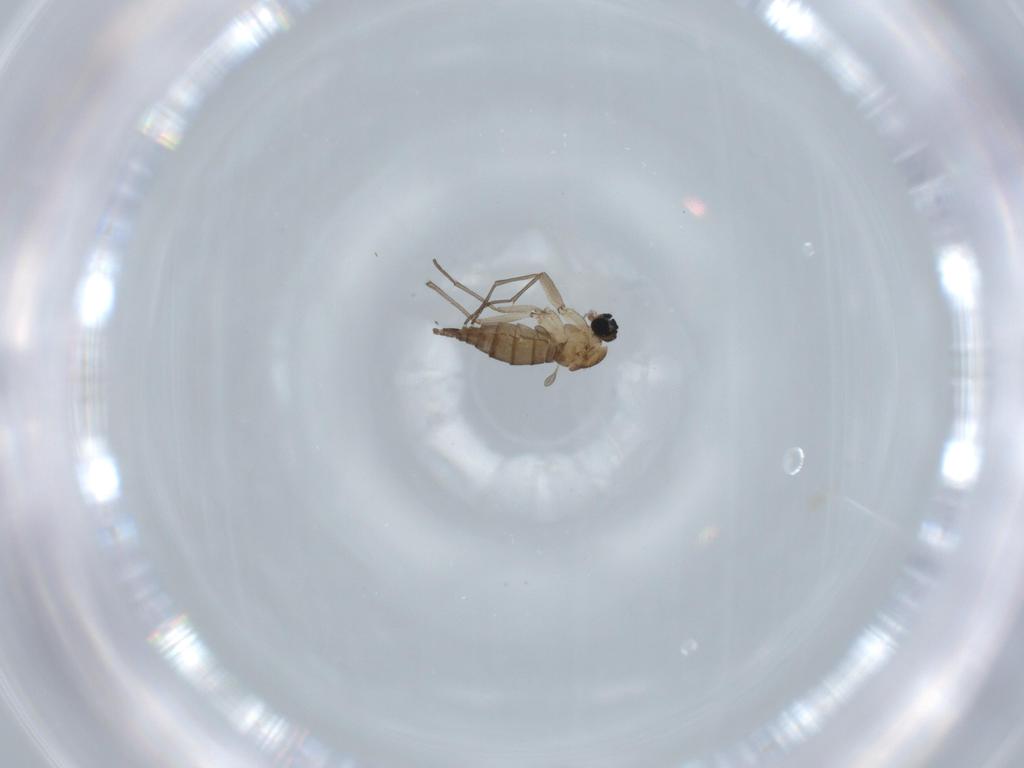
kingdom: Animalia
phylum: Arthropoda
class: Insecta
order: Diptera
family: Sciaridae
